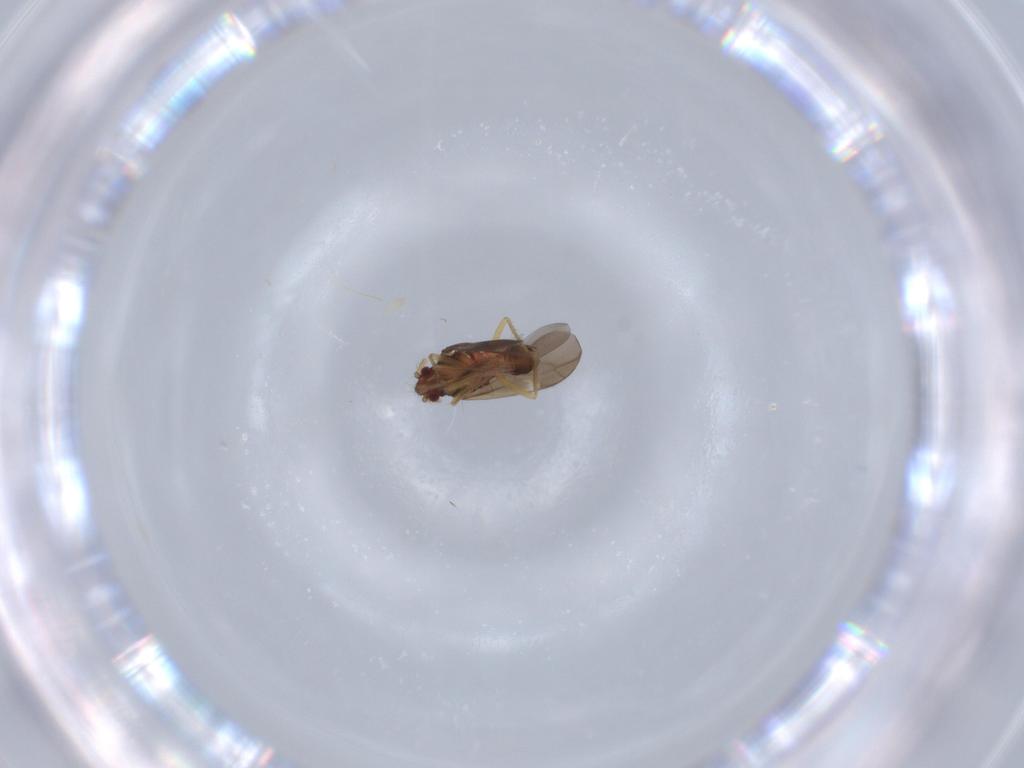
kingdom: Animalia
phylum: Arthropoda
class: Insecta
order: Hemiptera
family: Ceratocombidae
